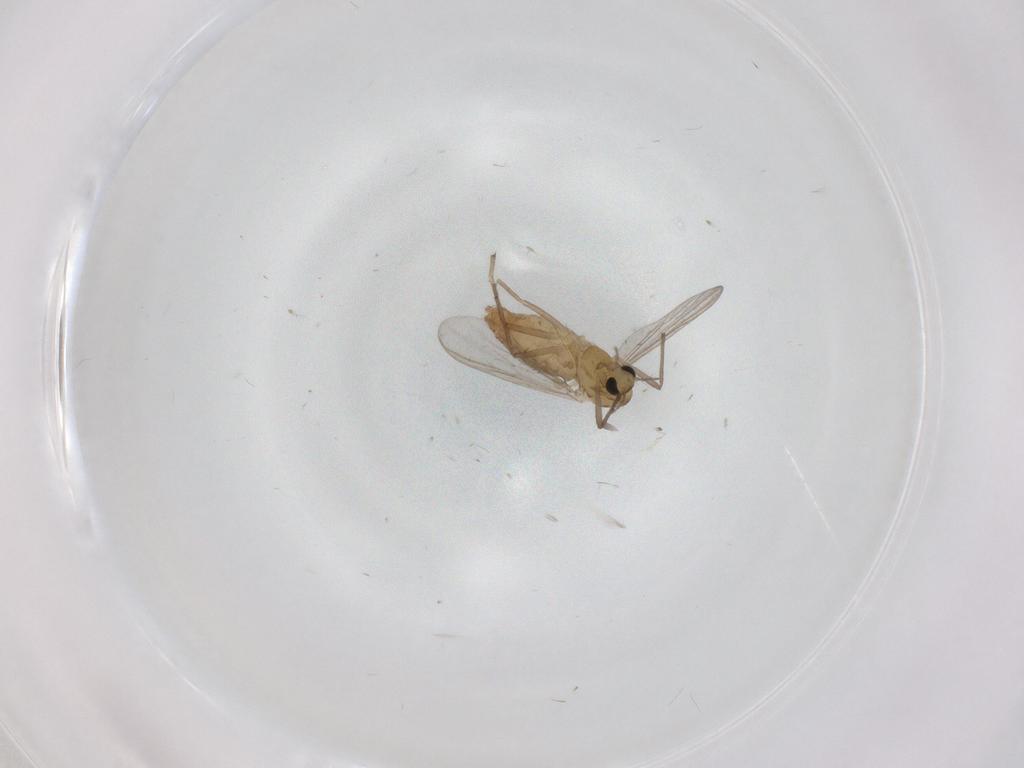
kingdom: Animalia
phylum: Arthropoda
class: Insecta
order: Diptera
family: Chironomidae
